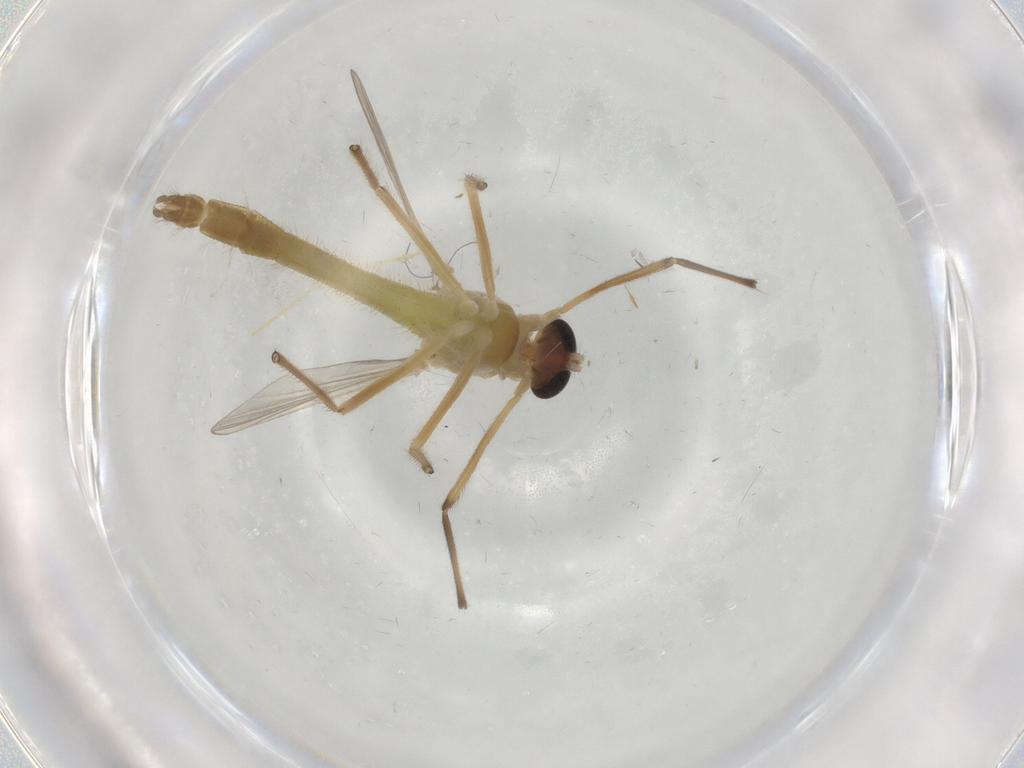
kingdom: Animalia
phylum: Arthropoda
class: Insecta
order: Diptera
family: Chironomidae
